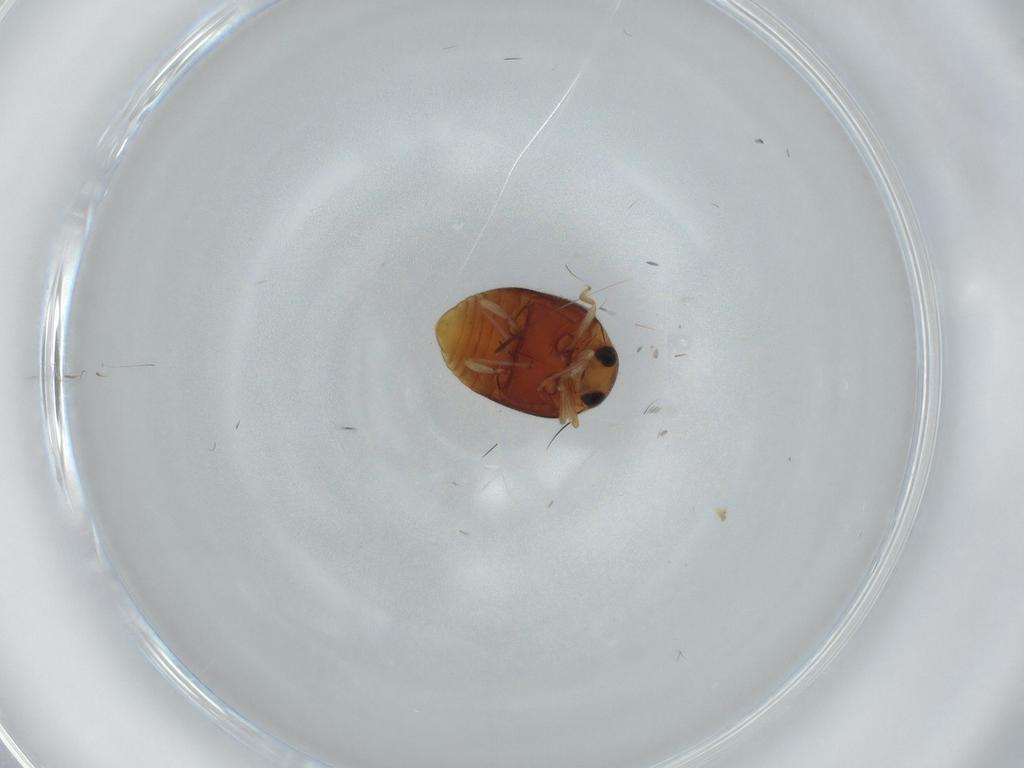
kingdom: Animalia
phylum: Arthropoda
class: Insecta
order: Coleoptera
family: Coccinellidae
